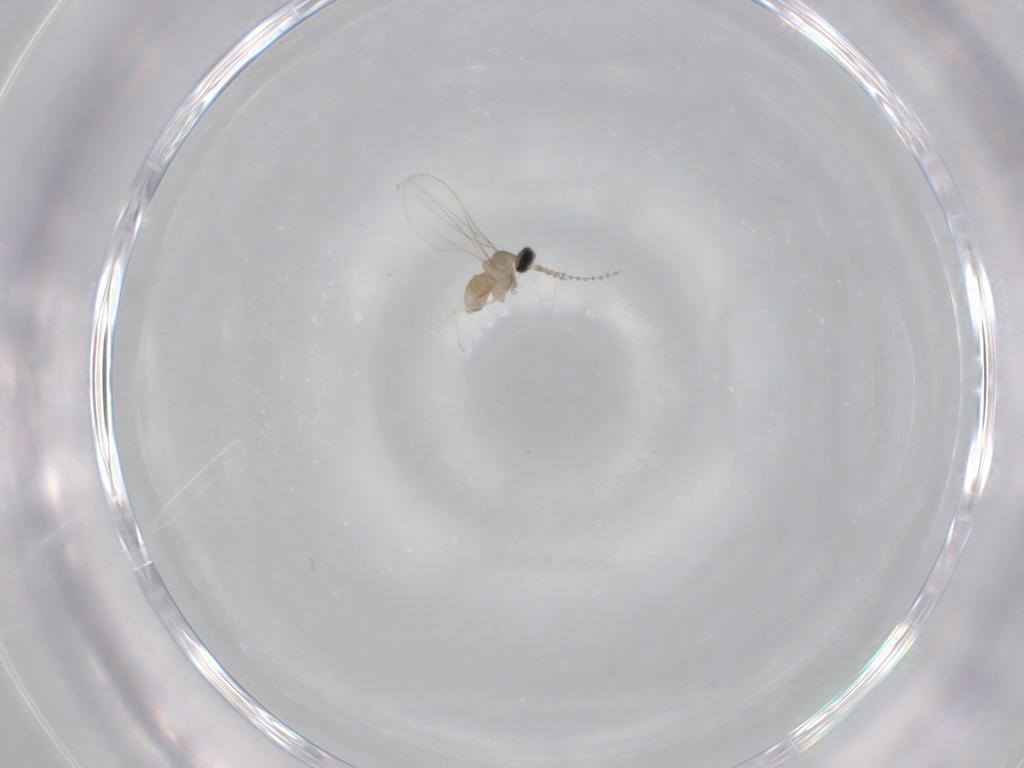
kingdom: Animalia
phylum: Arthropoda
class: Insecta
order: Diptera
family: Cecidomyiidae
